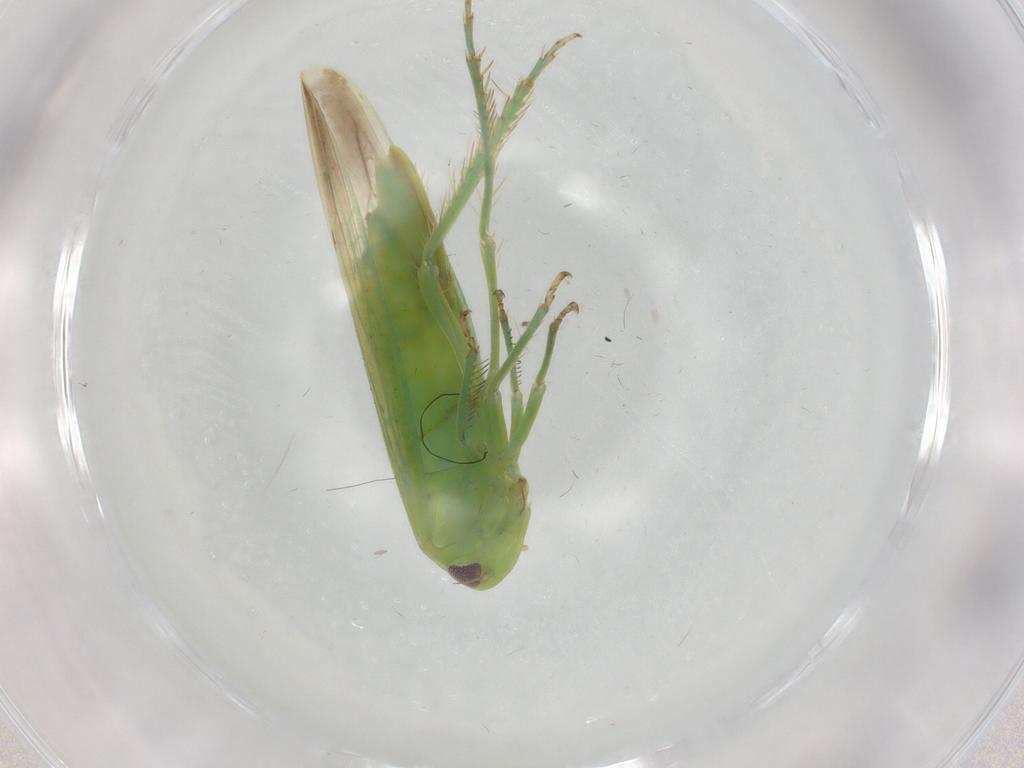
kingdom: Animalia
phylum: Arthropoda
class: Insecta
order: Hemiptera
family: Cicadellidae
